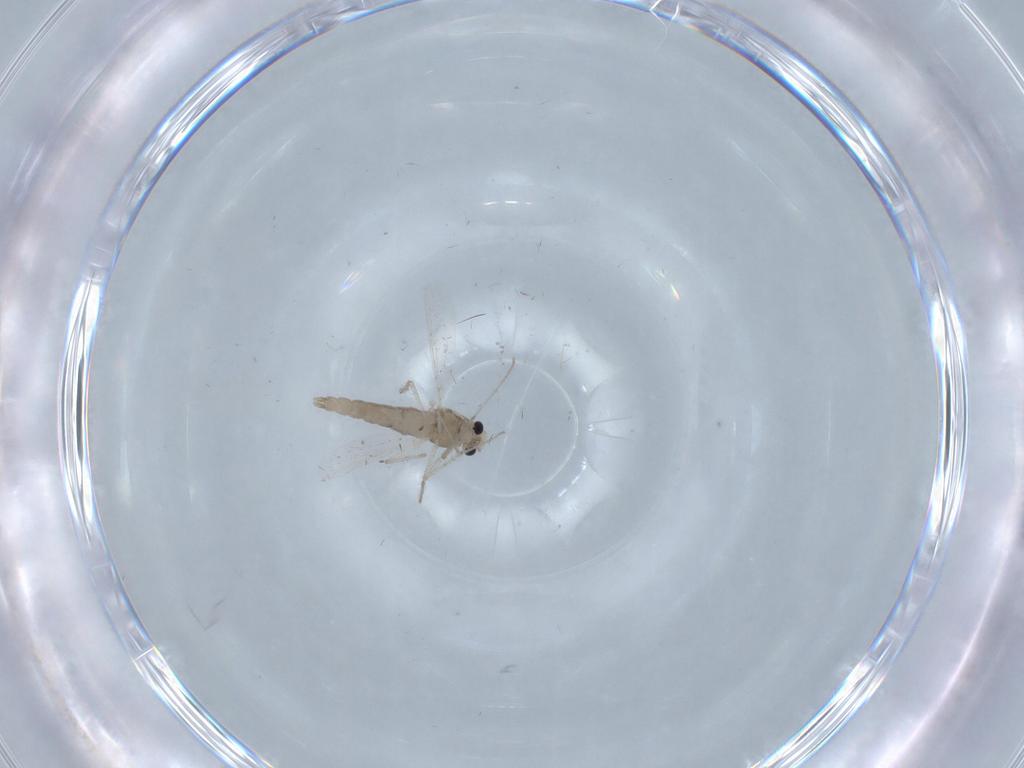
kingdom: Animalia
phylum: Arthropoda
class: Insecta
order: Diptera
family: Chironomidae
